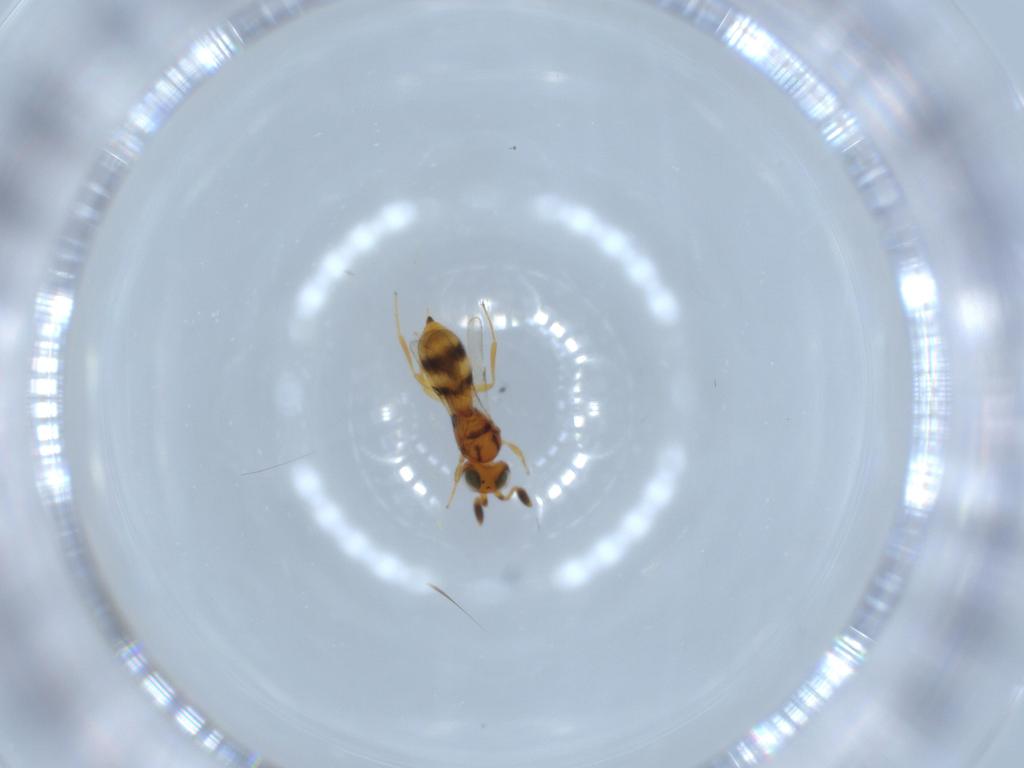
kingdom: Animalia
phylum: Arthropoda
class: Insecta
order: Hymenoptera
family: Scelionidae
